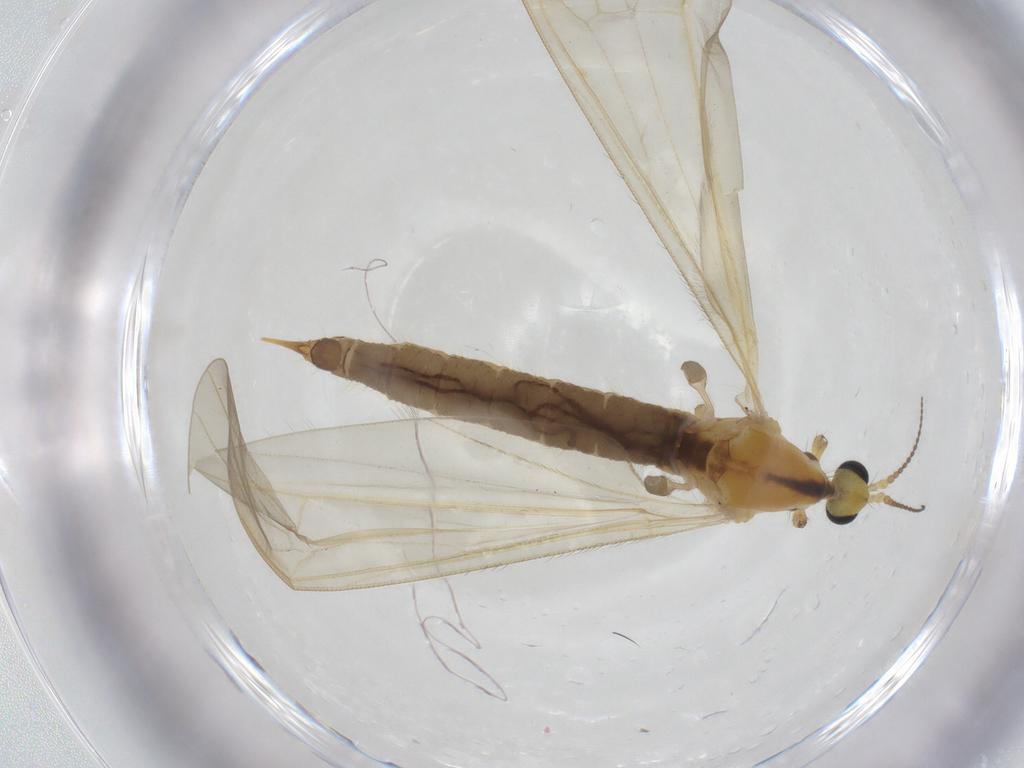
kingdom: Animalia
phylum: Arthropoda
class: Insecta
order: Diptera
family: Limoniidae
